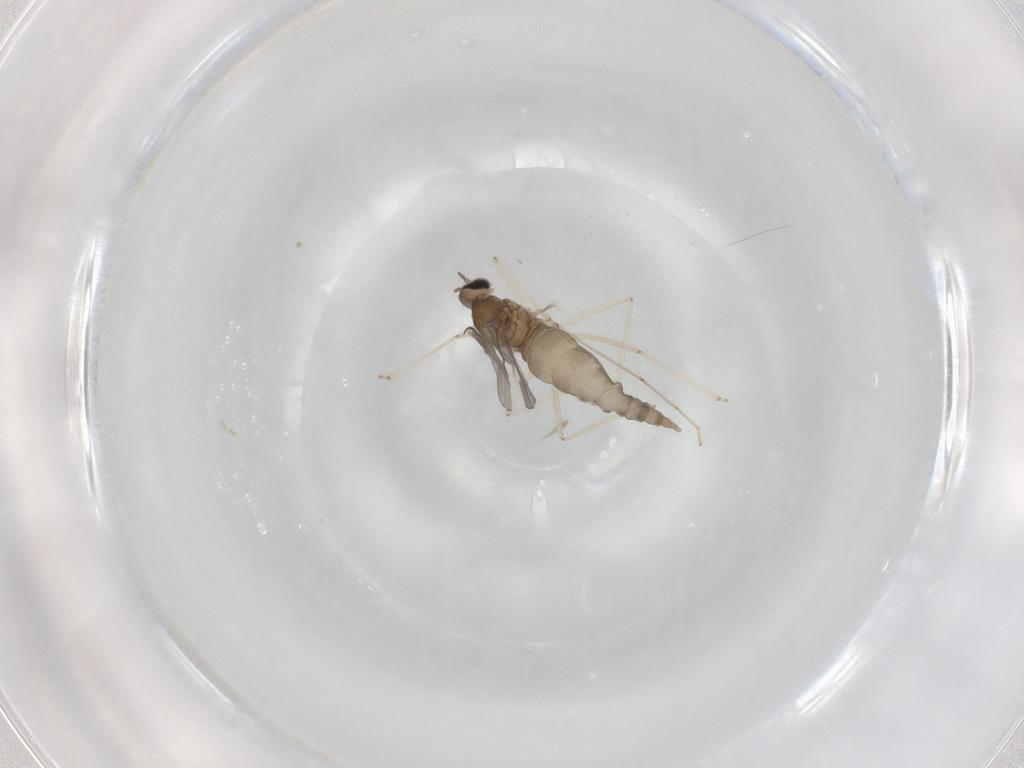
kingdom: Animalia
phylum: Arthropoda
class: Insecta
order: Diptera
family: Cecidomyiidae
